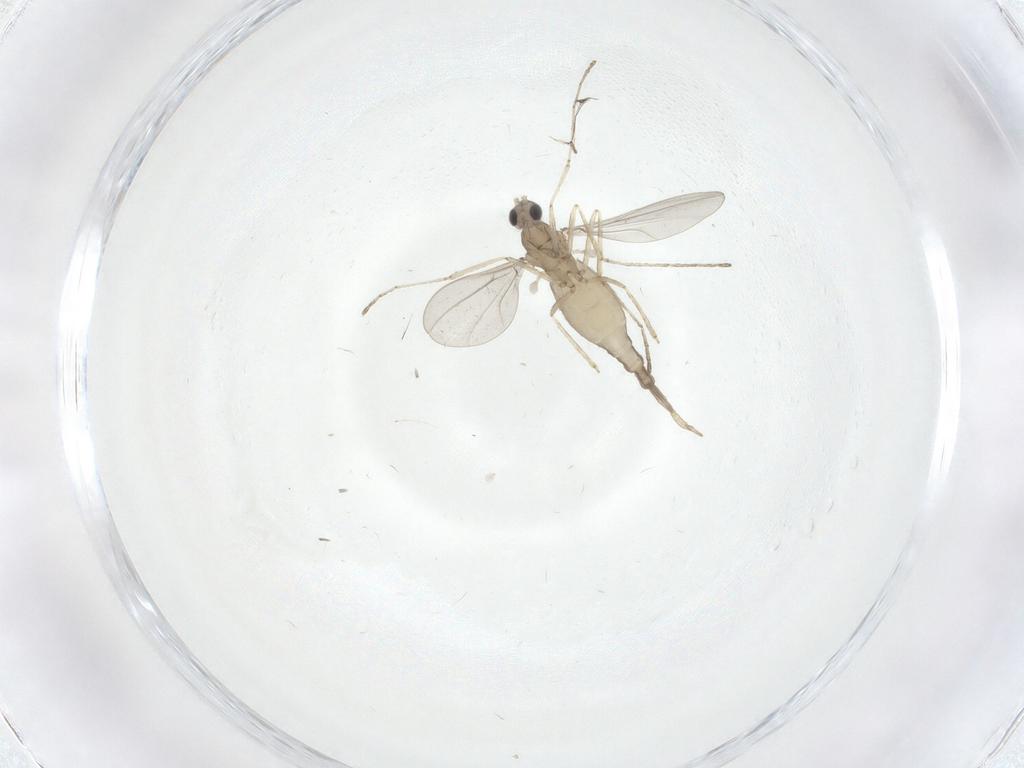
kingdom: Animalia
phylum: Arthropoda
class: Insecta
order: Diptera
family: Cecidomyiidae
